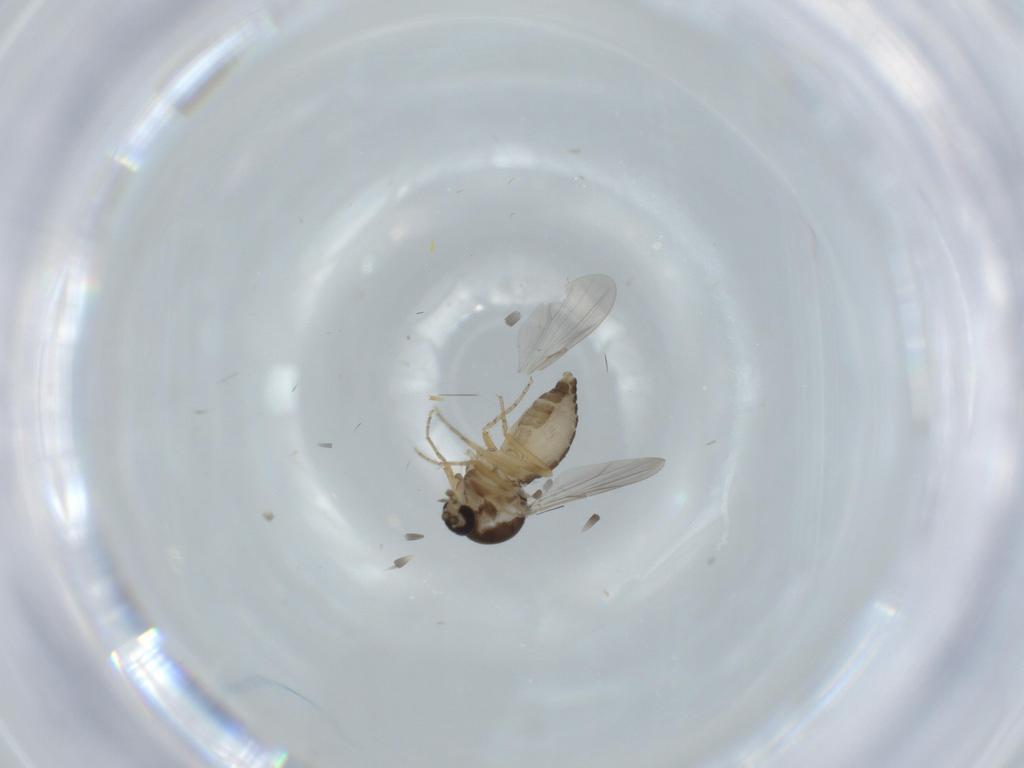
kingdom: Animalia
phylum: Arthropoda
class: Insecta
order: Diptera
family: Ceratopogonidae
